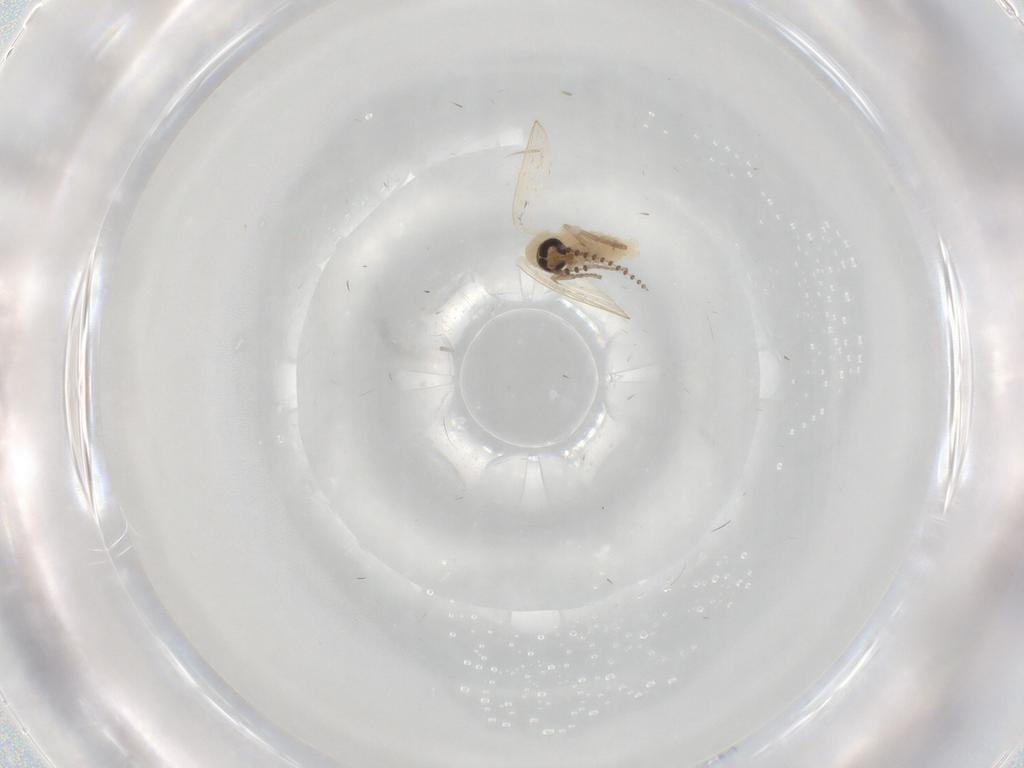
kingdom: Animalia
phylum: Arthropoda
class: Insecta
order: Diptera
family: Psychodidae
